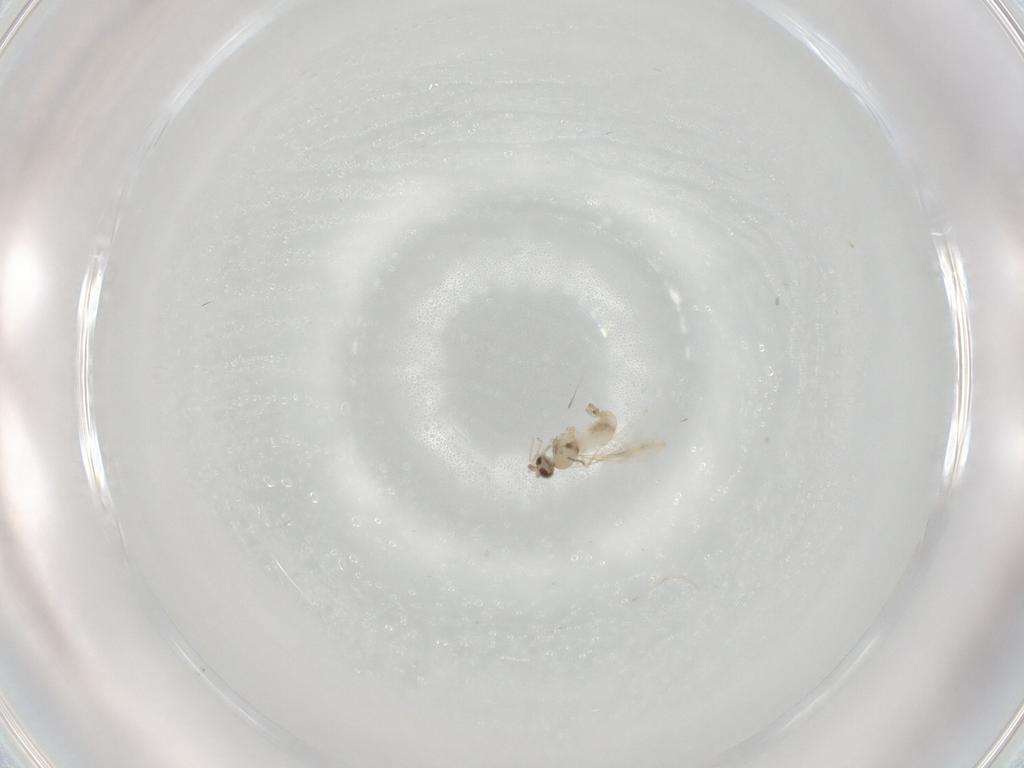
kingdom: Animalia
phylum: Arthropoda
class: Insecta
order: Diptera
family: Cecidomyiidae
